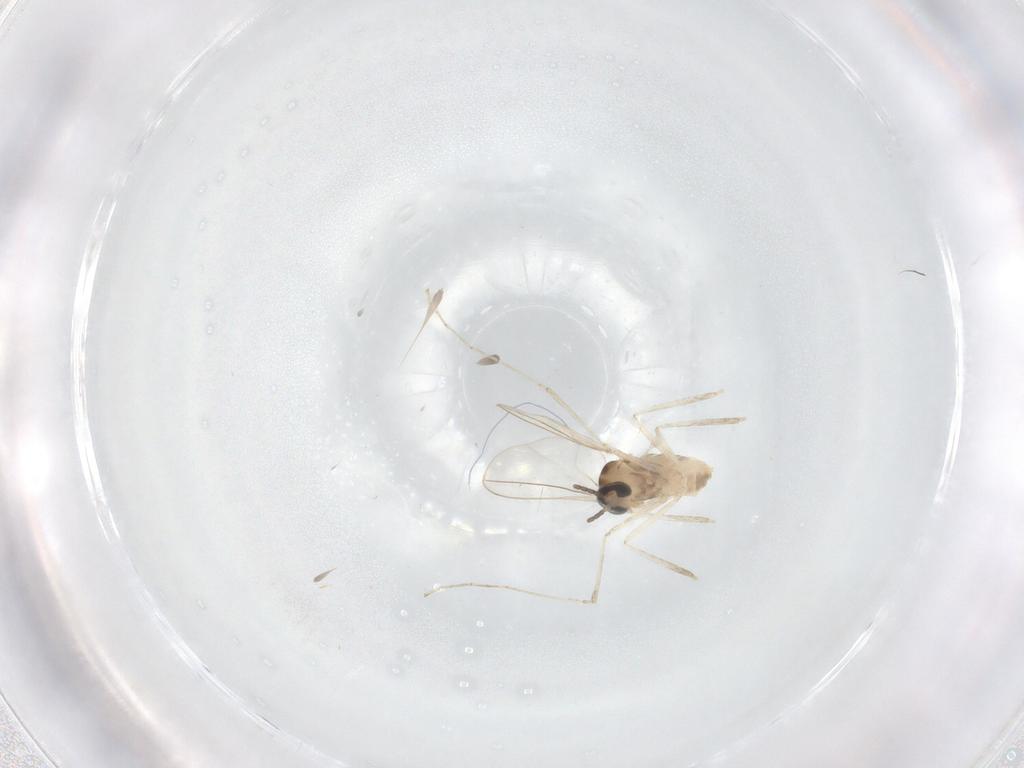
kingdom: Animalia
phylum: Arthropoda
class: Insecta
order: Diptera
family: Cecidomyiidae
